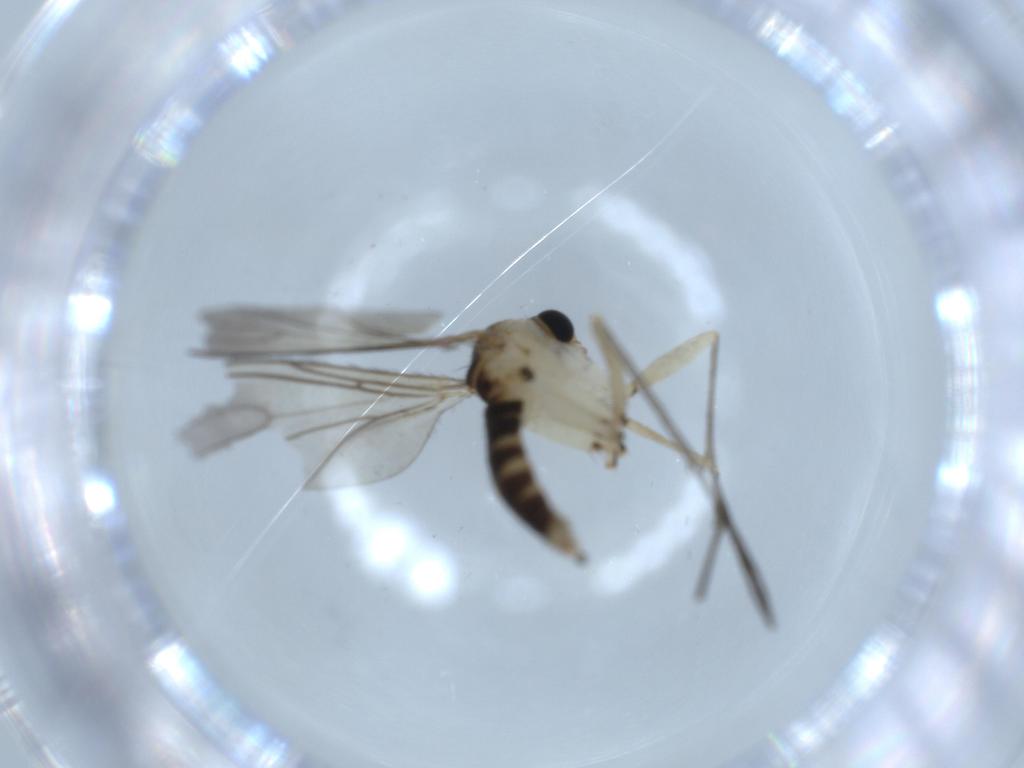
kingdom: Animalia
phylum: Arthropoda
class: Insecta
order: Diptera
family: Sciaridae
